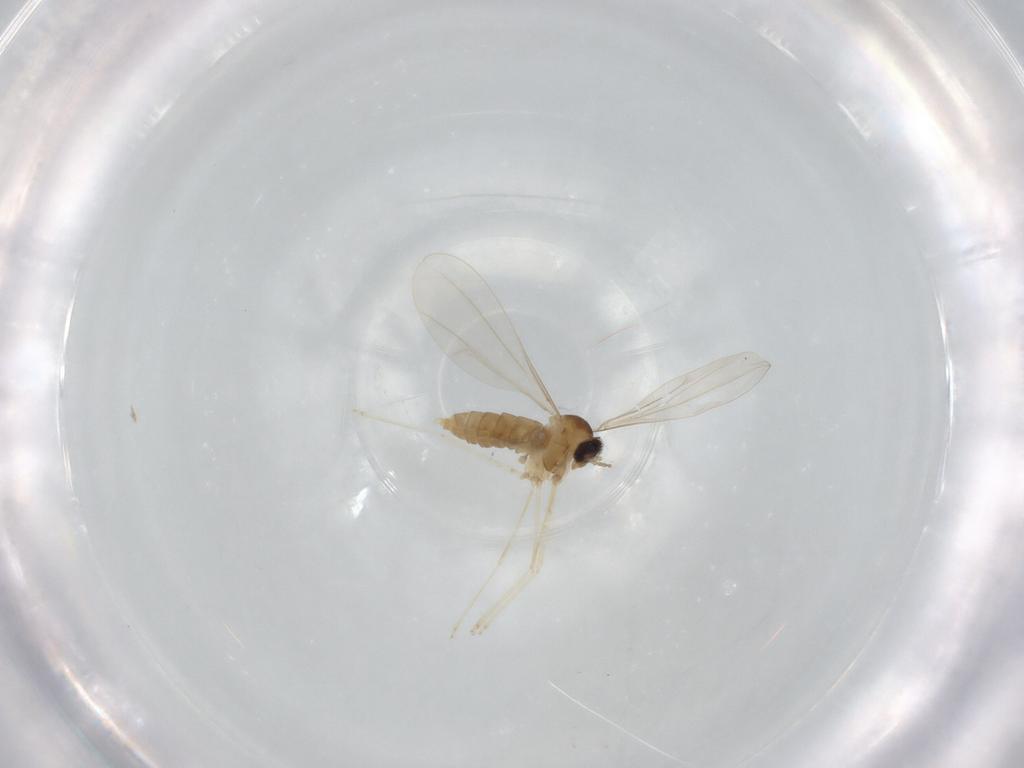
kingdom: Animalia
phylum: Arthropoda
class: Insecta
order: Diptera
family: Cecidomyiidae
